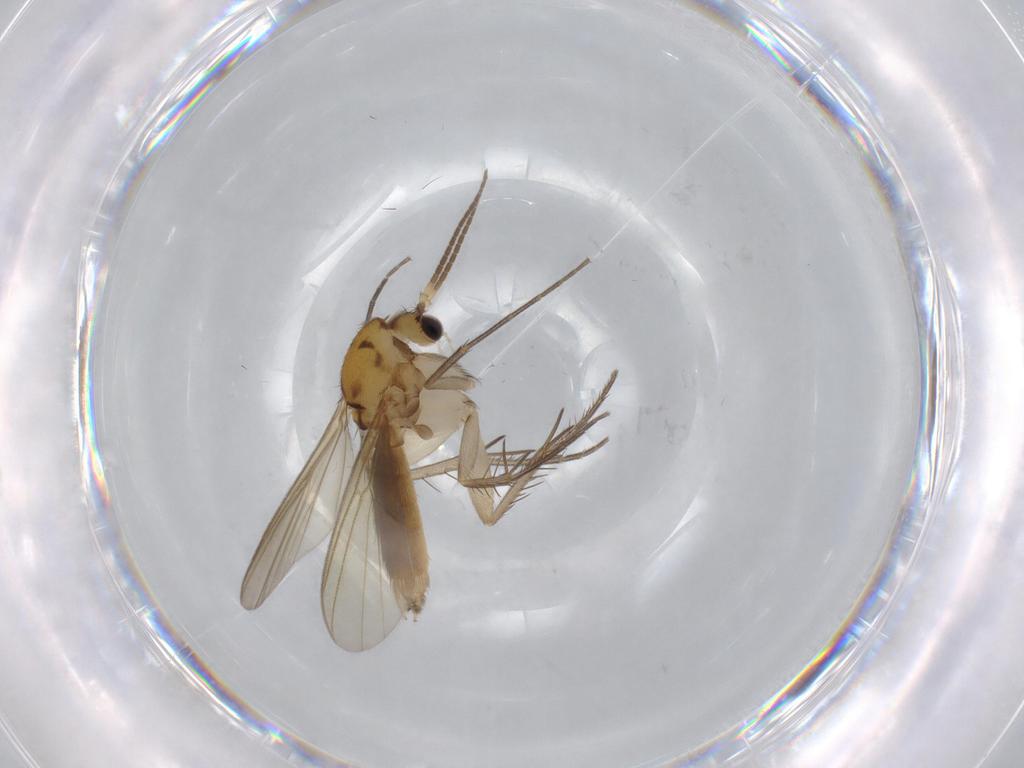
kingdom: Animalia
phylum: Arthropoda
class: Insecta
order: Diptera
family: Mycetophilidae
